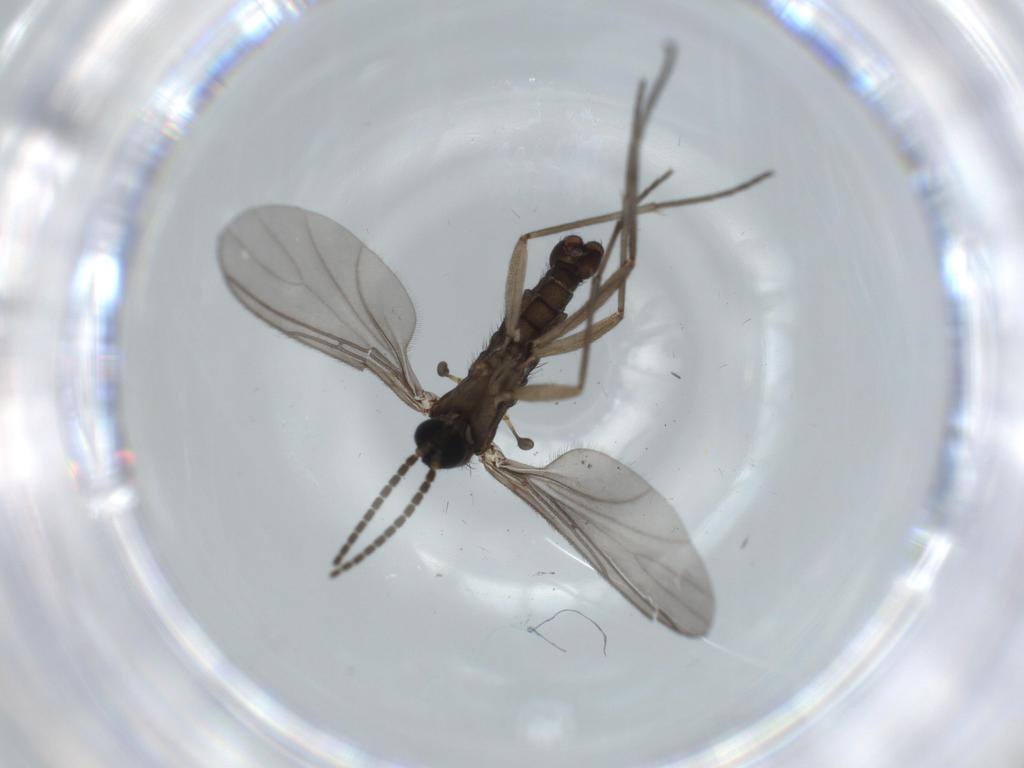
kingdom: Animalia
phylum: Arthropoda
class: Insecta
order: Diptera
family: Sciaridae
